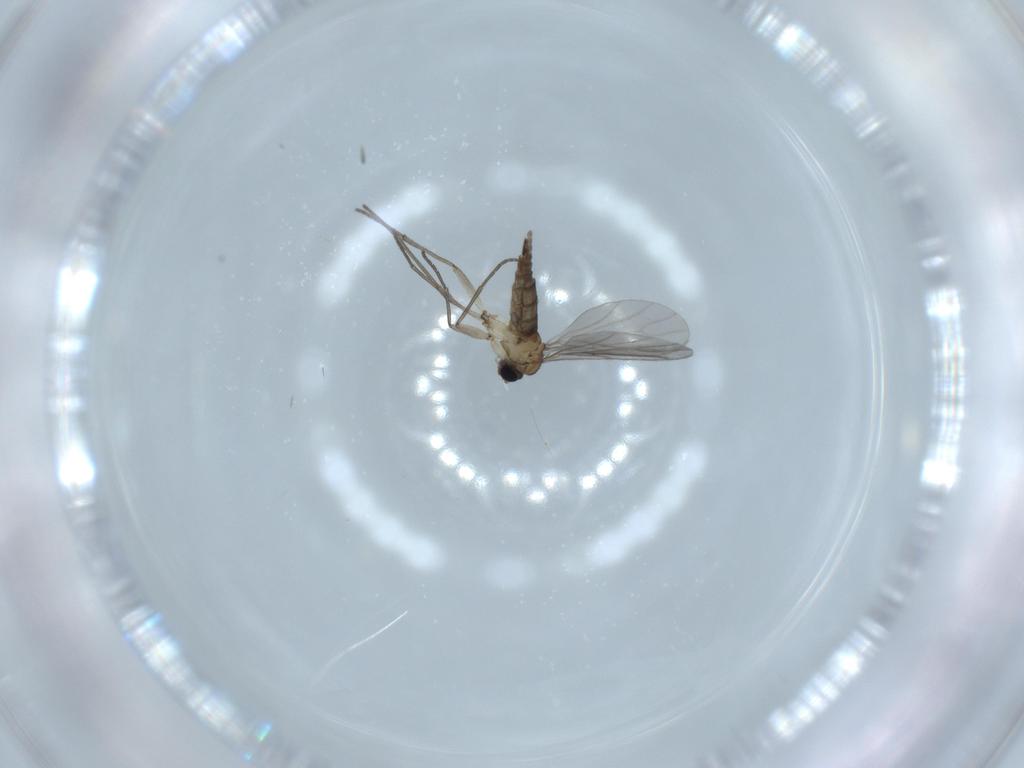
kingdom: Animalia
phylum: Arthropoda
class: Insecta
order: Diptera
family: Sciaridae
